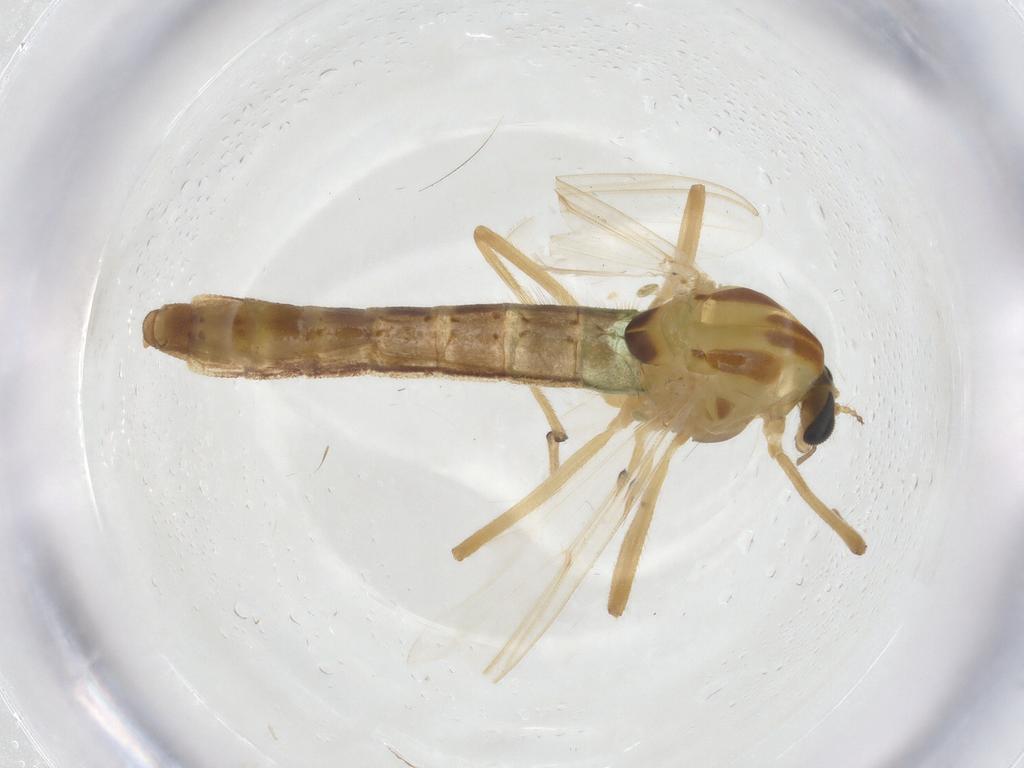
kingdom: Animalia
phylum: Arthropoda
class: Insecta
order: Diptera
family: Chironomidae
